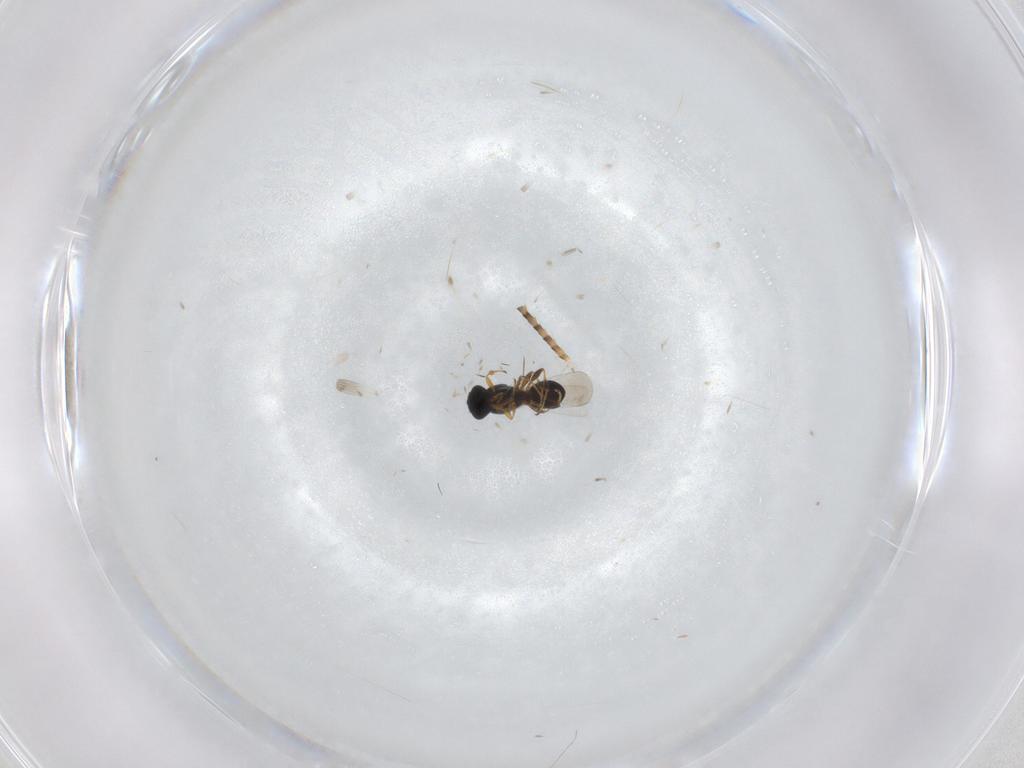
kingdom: Animalia
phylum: Arthropoda
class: Insecta
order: Hymenoptera
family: Platygastridae
